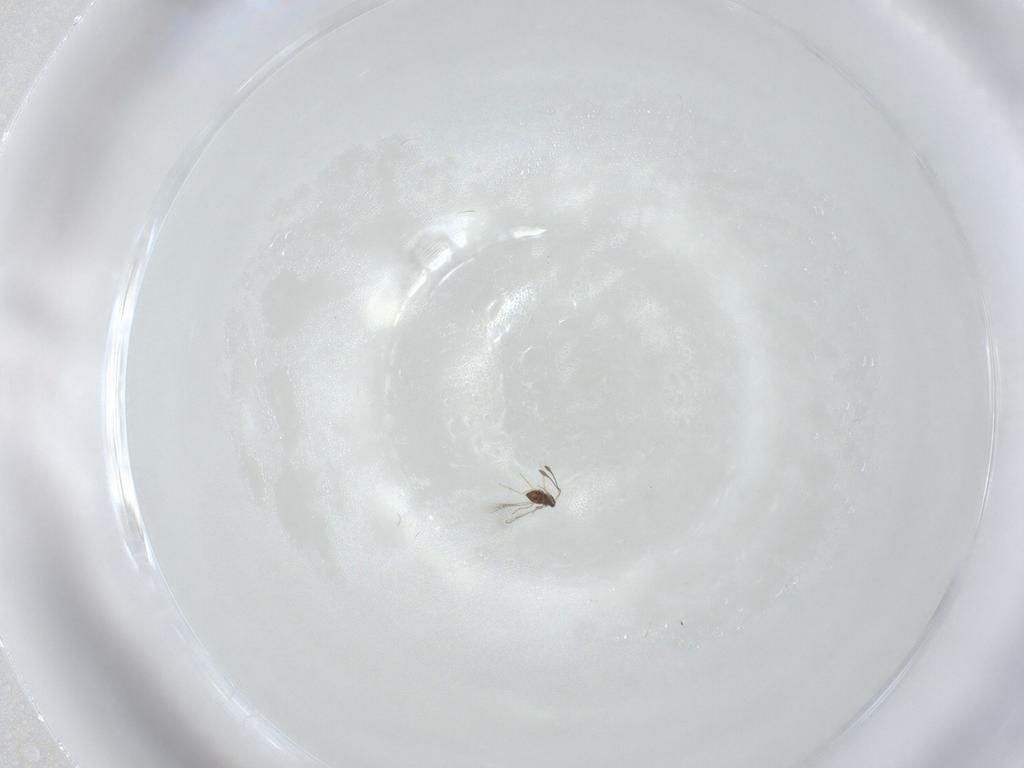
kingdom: Animalia
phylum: Arthropoda
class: Insecta
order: Hymenoptera
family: Mymaridae
